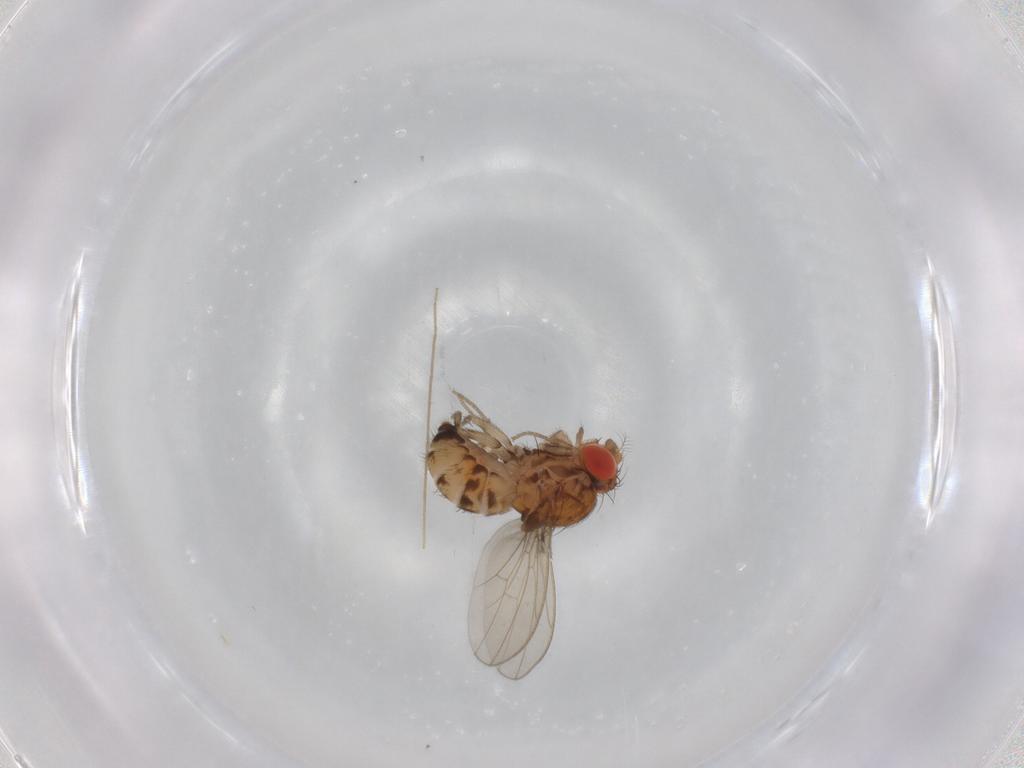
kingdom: Animalia
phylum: Arthropoda
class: Insecta
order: Diptera
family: Drosophilidae
